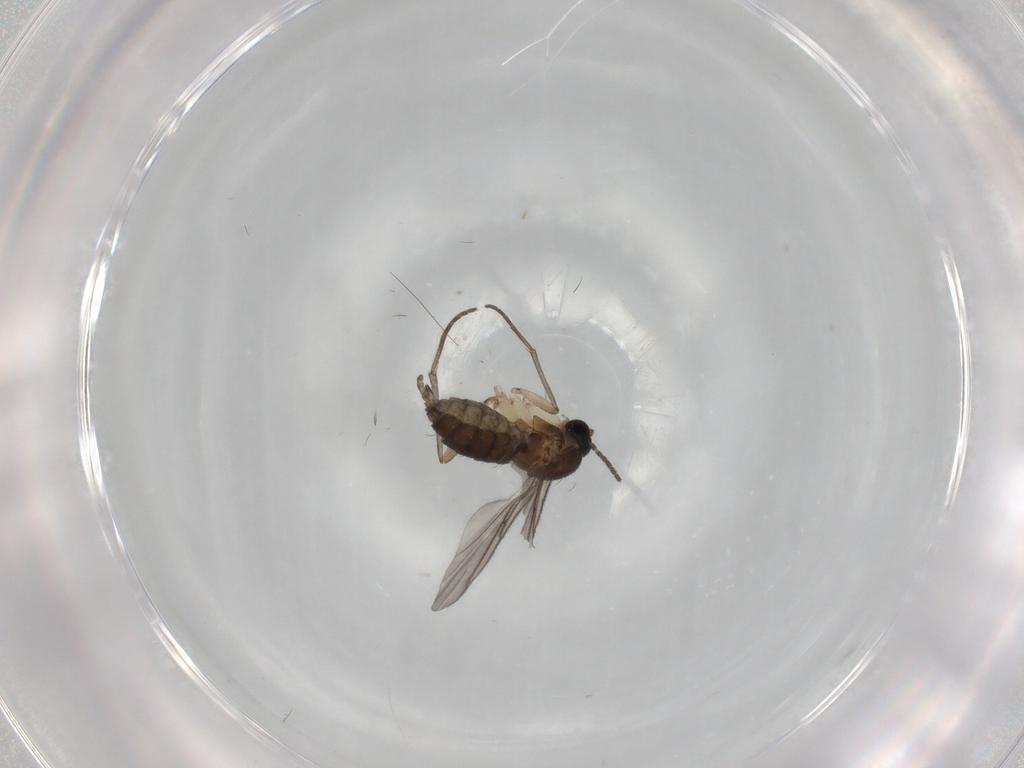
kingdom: Animalia
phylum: Arthropoda
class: Insecta
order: Diptera
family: Sciaridae
